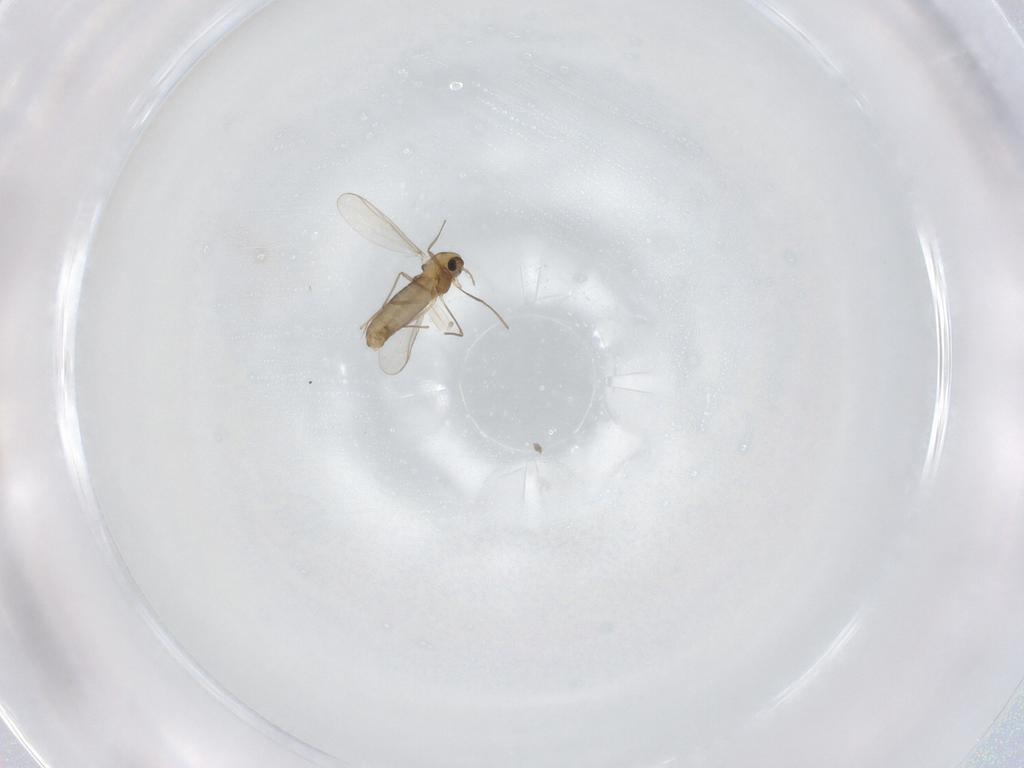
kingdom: Animalia
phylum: Arthropoda
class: Insecta
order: Diptera
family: Chironomidae
